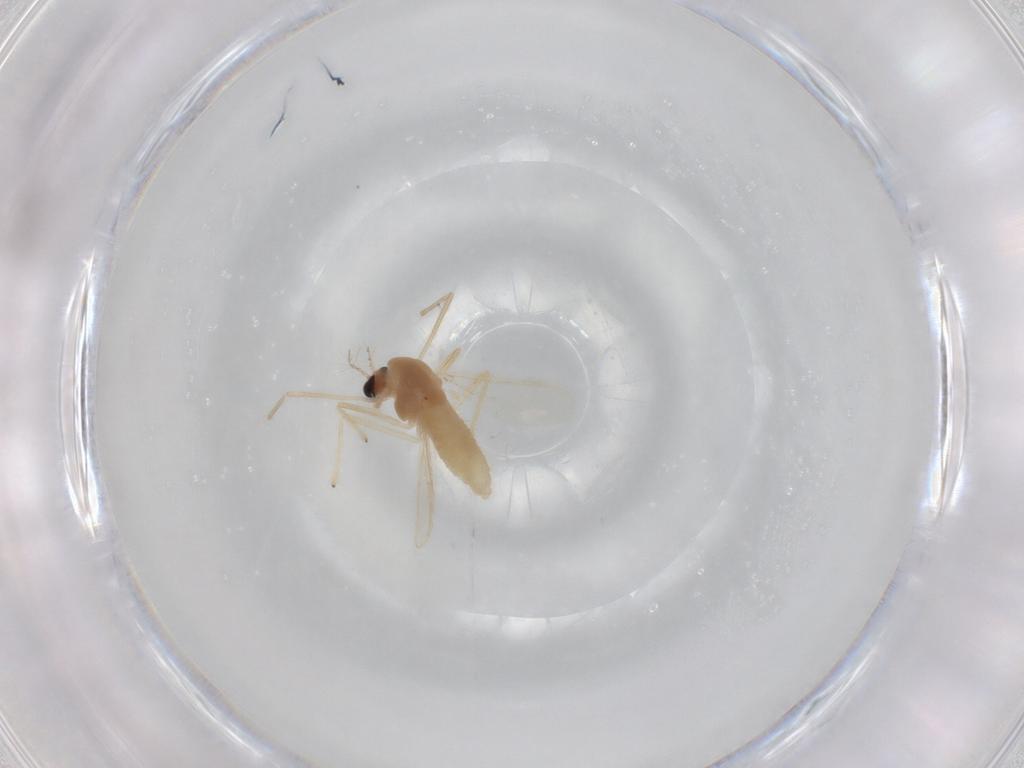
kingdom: Animalia
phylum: Arthropoda
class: Insecta
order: Diptera
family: Chironomidae
